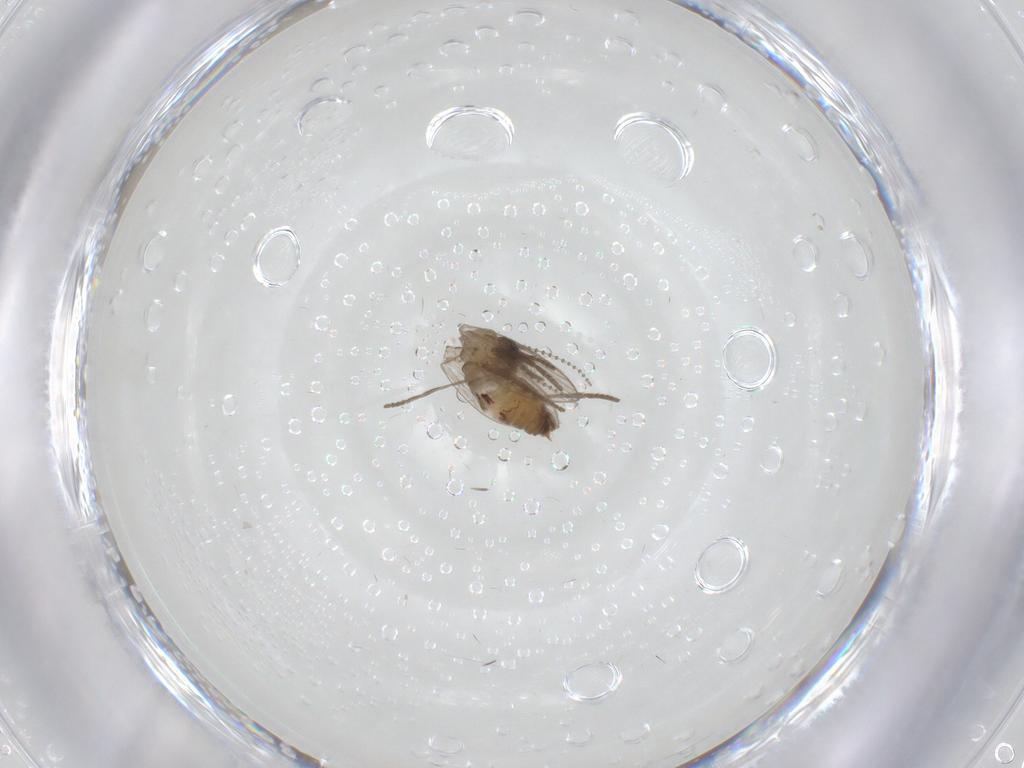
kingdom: Animalia
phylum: Arthropoda
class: Insecta
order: Diptera
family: Psychodidae
